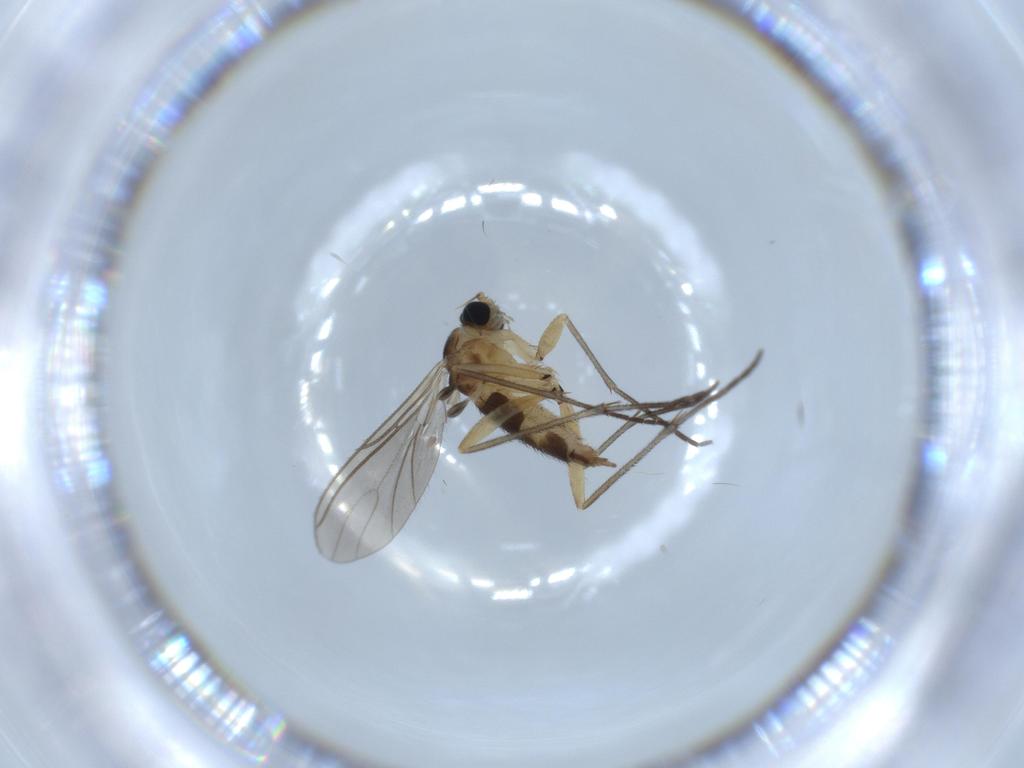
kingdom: Animalia
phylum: Arthropoda
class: Insecta
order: Diptera
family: Sciaridae
